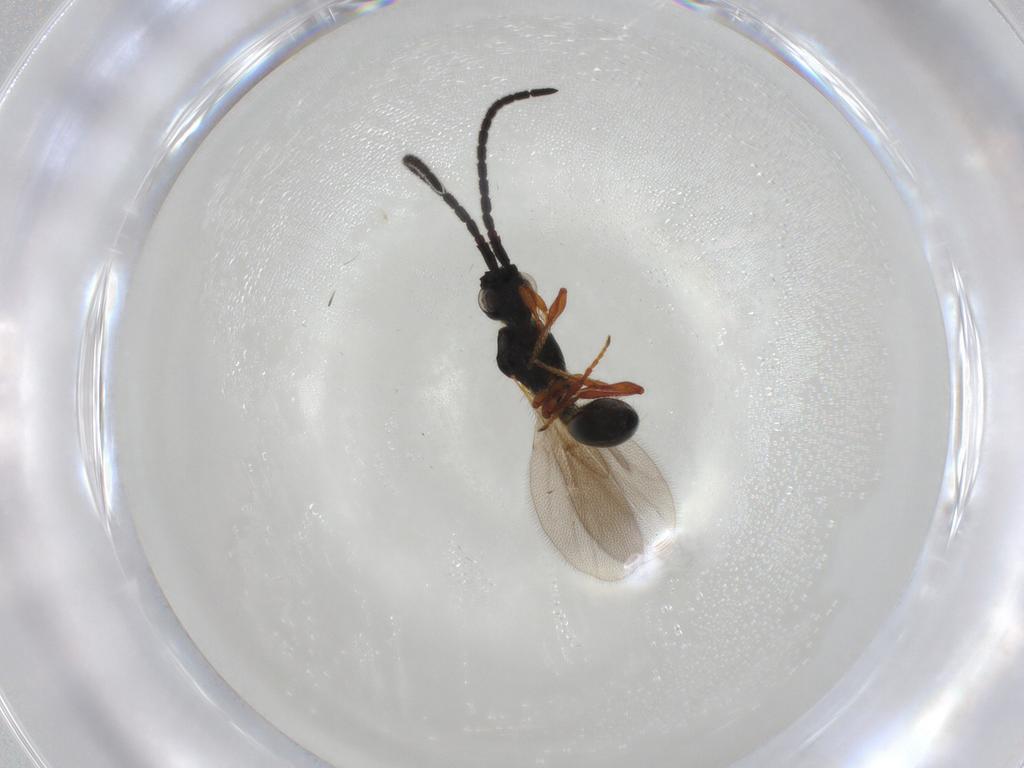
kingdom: Animalia
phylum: Arthropoda
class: Insecta
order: Hymenoptera
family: Diapriidae
